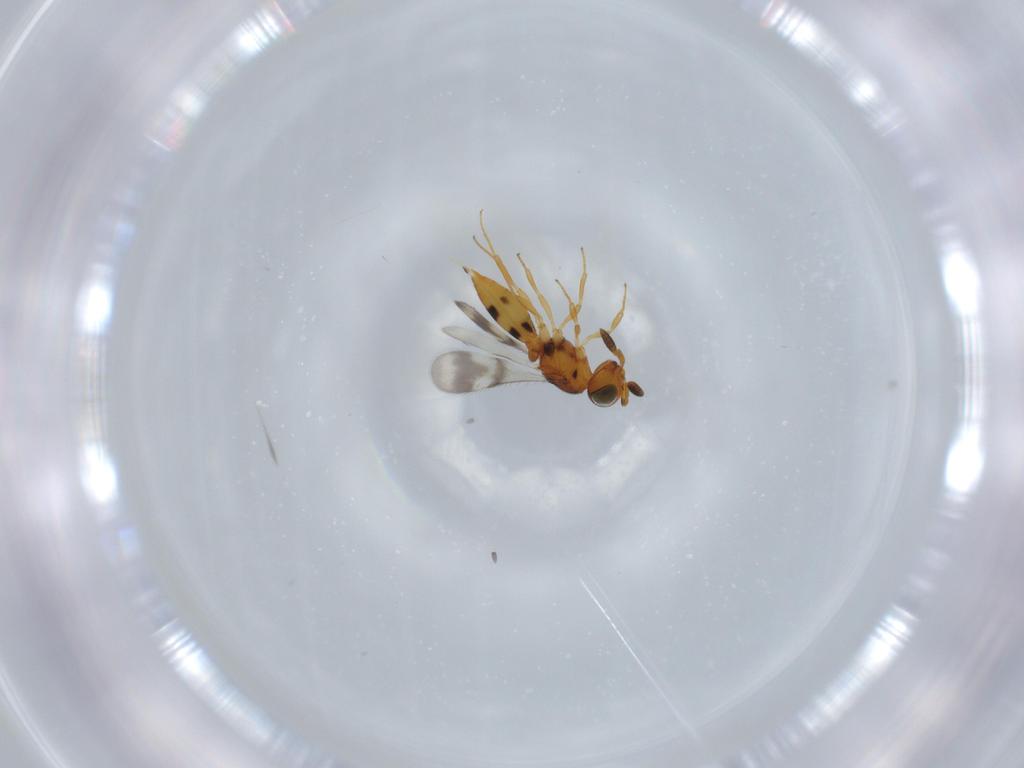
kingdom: Animalia
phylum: Arthropoda
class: Insecta
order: Hymenoptera
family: Scelionidae
